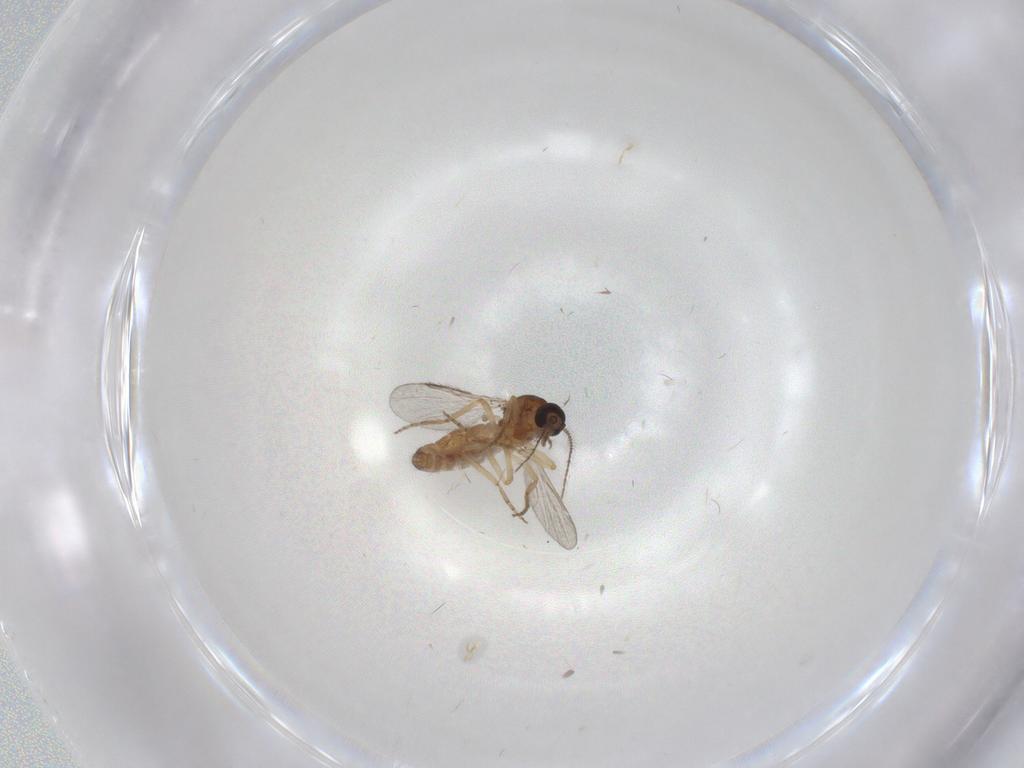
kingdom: Animalia
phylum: Arthropoda
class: Insecta
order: Diptera
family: Ceratopogonidae
